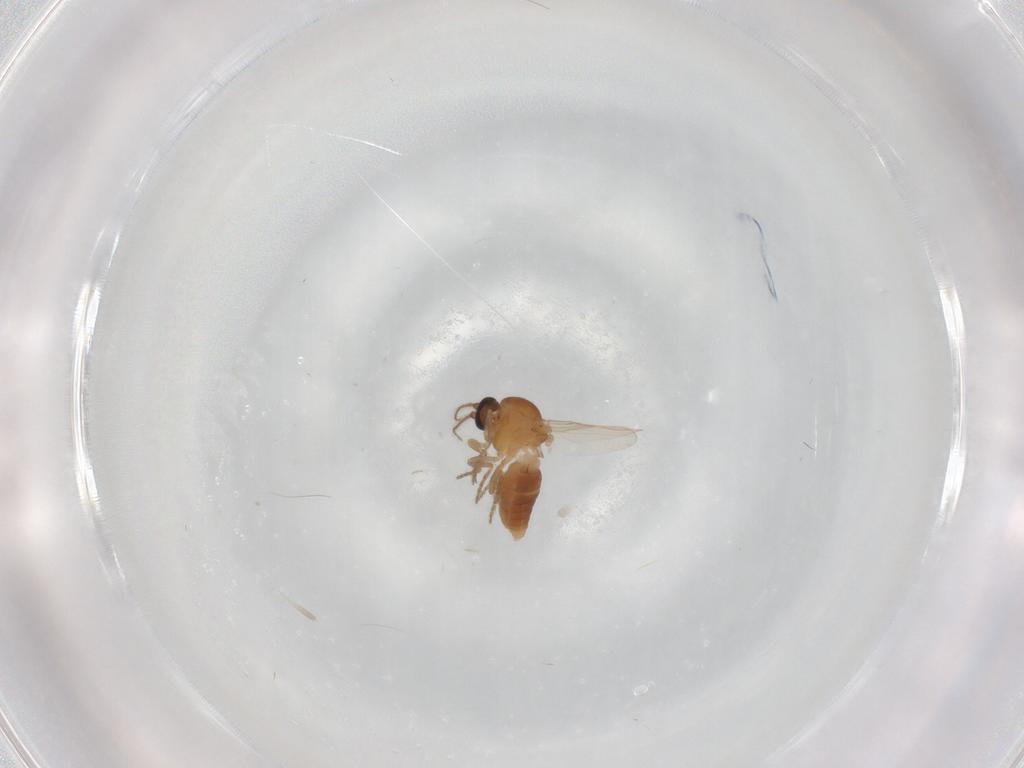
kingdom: Animalia
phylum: Arthropoda
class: Insecta
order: Diptera
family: Ceratopogonidae
